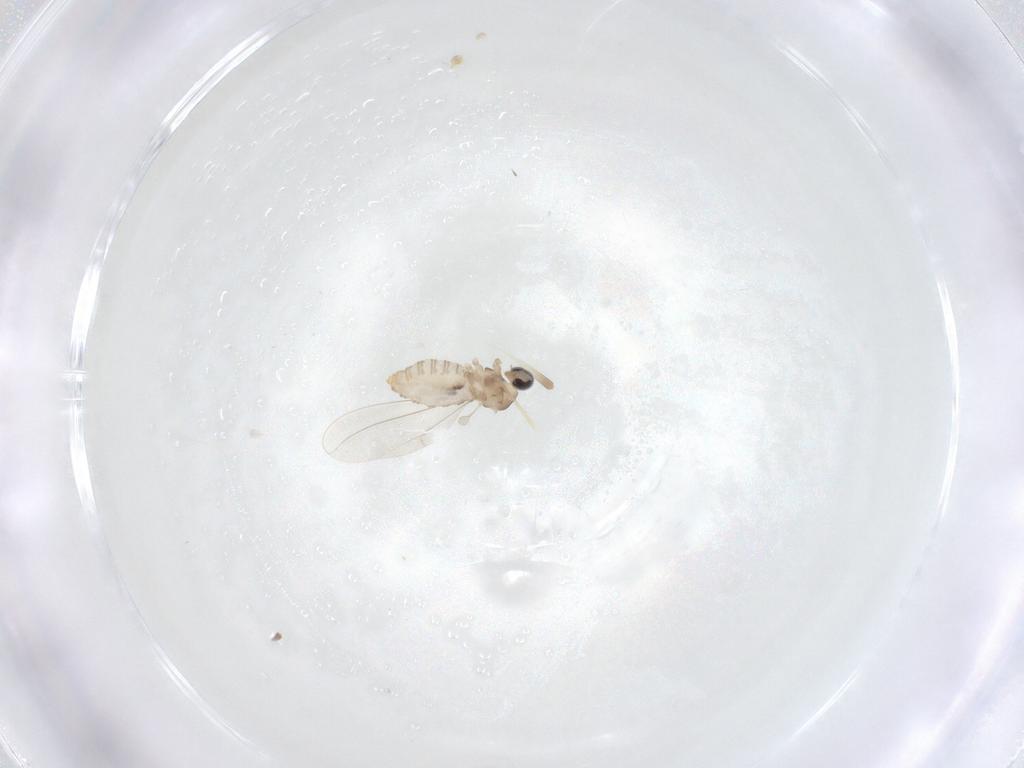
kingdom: Animalia
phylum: Arthropoda
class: Insecta
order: Diptera
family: Cecidomyiidae
